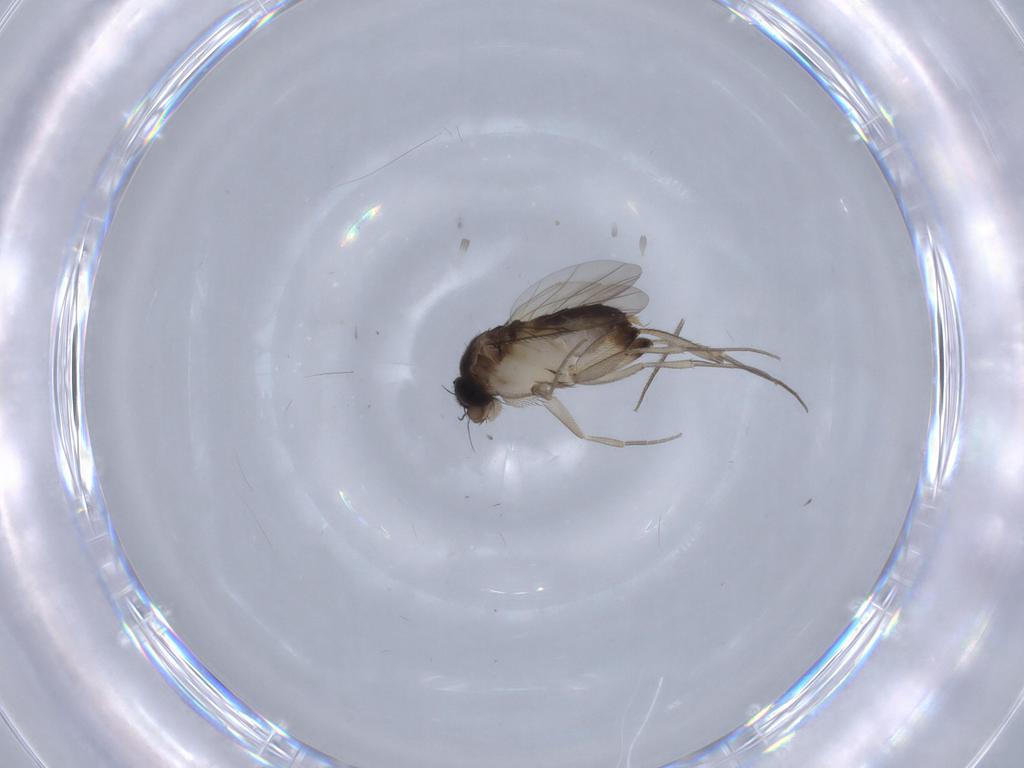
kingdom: Animalia
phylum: Arthropoda
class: Insecta
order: Diptera
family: Phoridae
